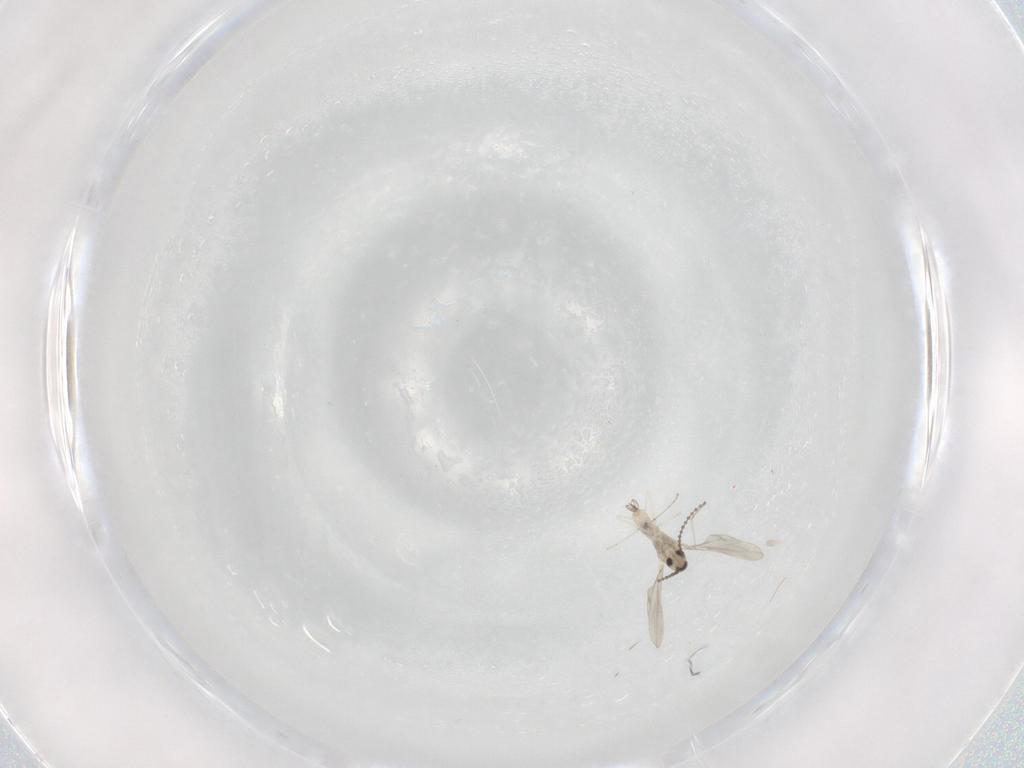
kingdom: Animalia
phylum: Arthropoda
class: Insecta
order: Diptera
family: Cecidomyiidae
